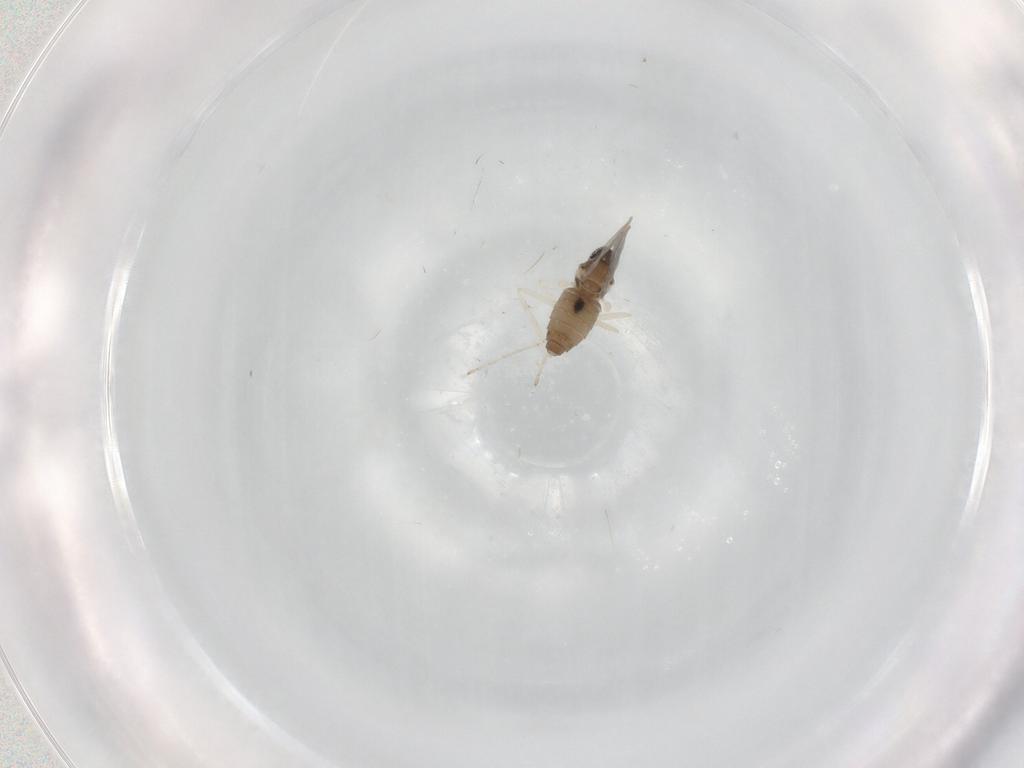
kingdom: Animalia
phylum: Arthropoda
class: Insecta
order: Diptera
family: Cecidomyiidae
